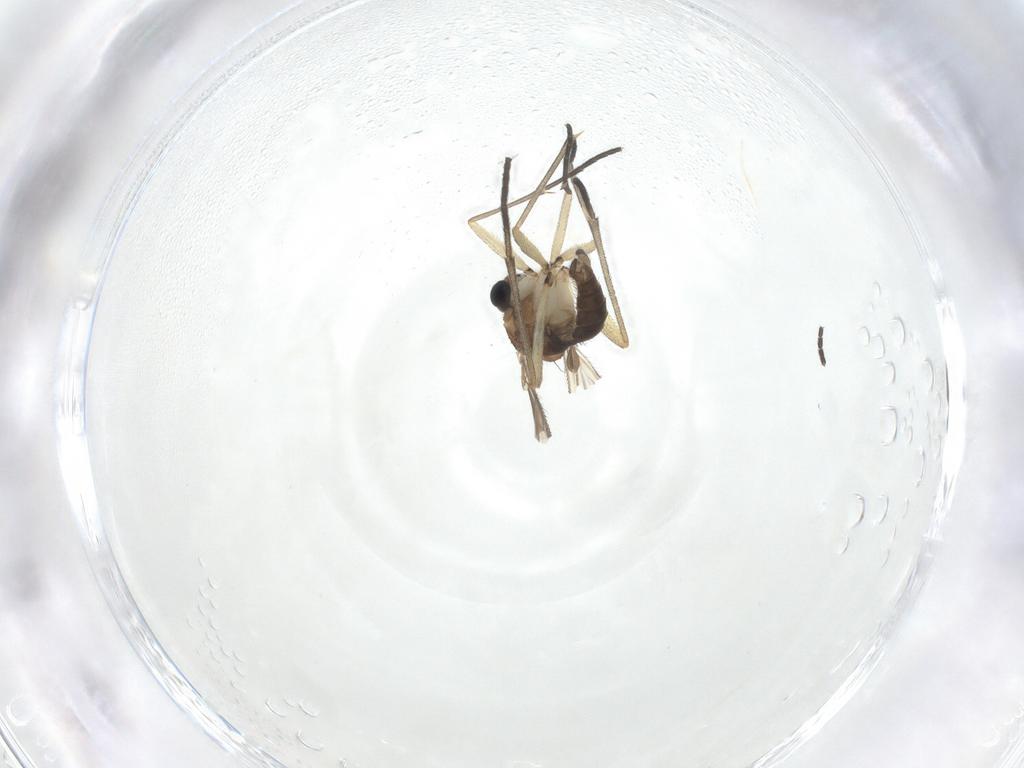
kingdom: Animalia
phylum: Arthropoda
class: Insecta
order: Diptera
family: Sciaridae
